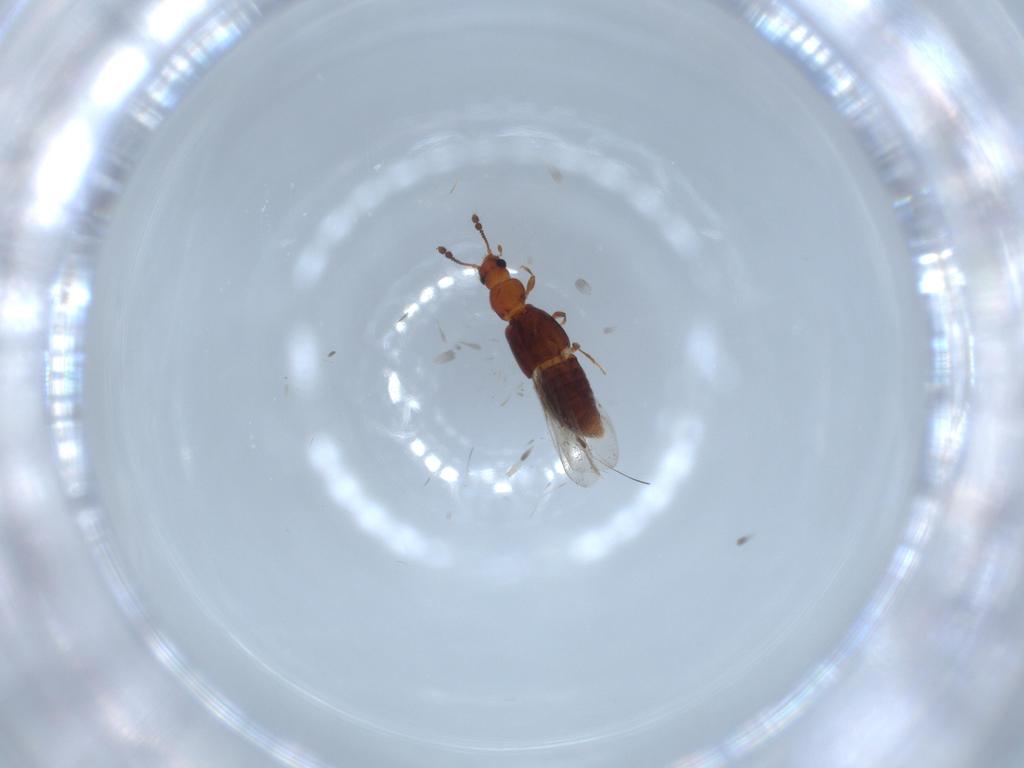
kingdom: Animalia
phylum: Arthropoda
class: Insecta
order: Coleoptera
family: Staphylinidae
